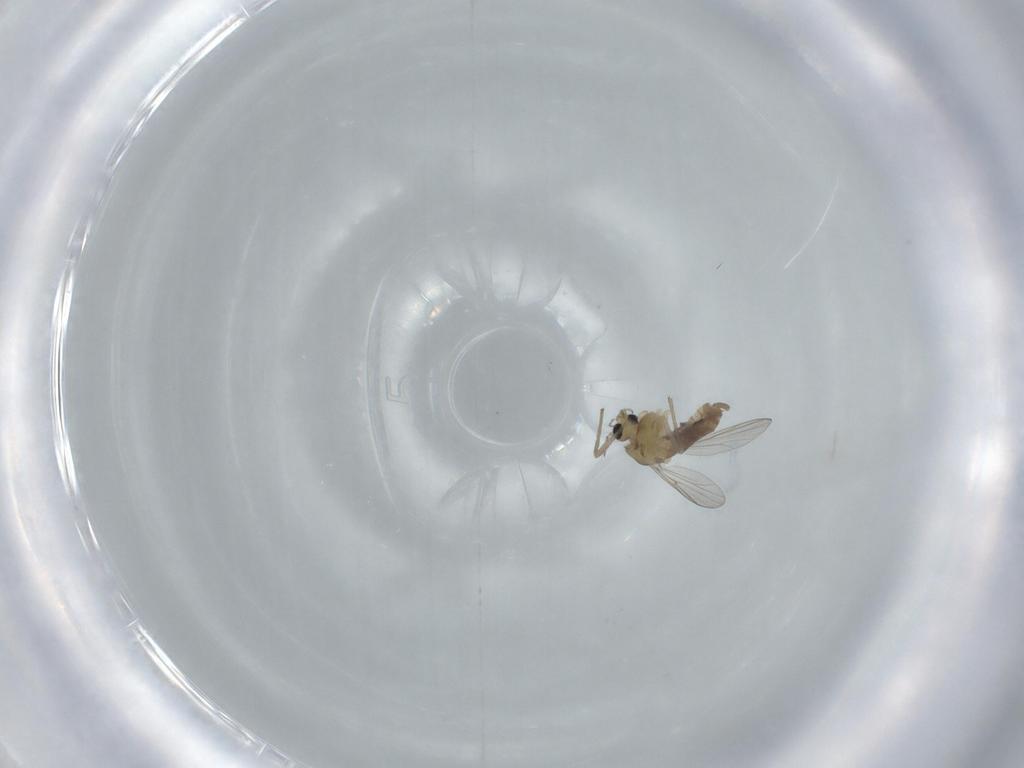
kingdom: Animalia
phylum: Arthropoda
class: Insecta
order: Diptera
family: Chironomidae
